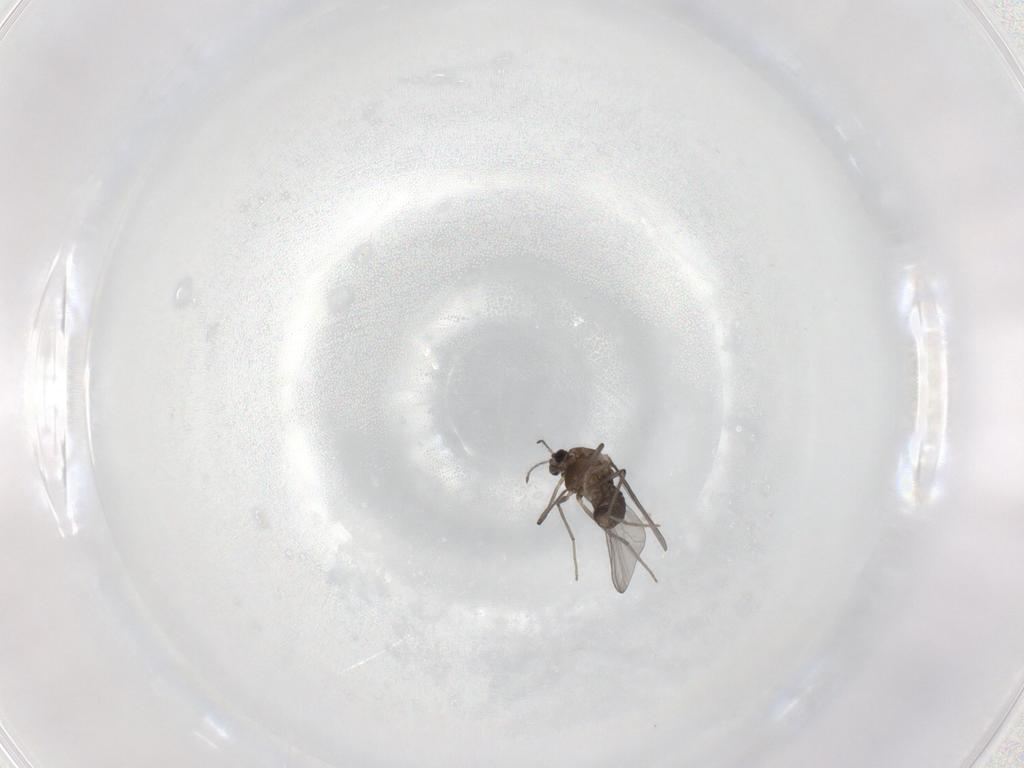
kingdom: Animalia
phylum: Arthropoda
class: Insecta
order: Diptera
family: Chironomidae
